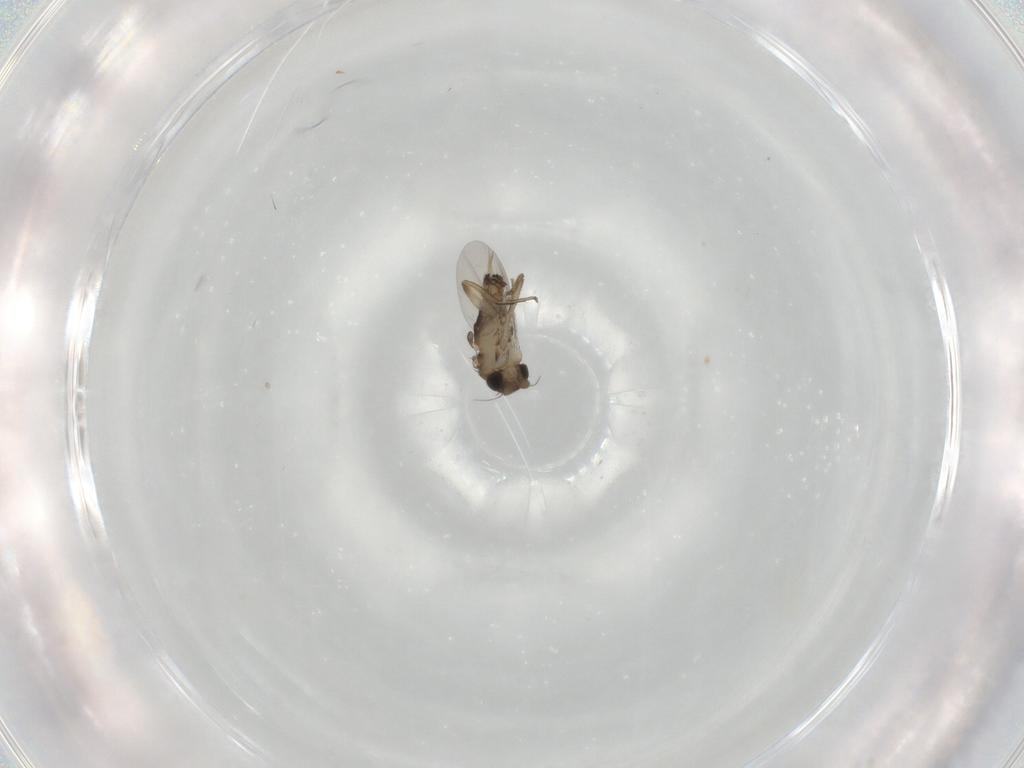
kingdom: Animalia
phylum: Arthropoda
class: Insecta
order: Diptera
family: Phoridae
